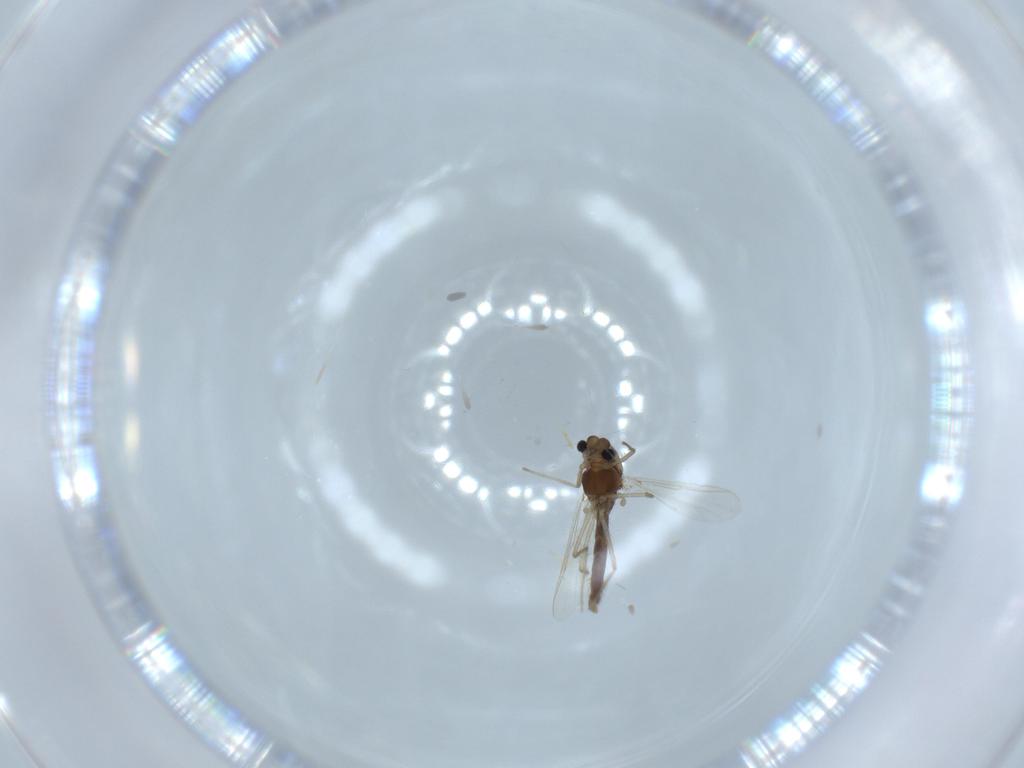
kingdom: Animalia
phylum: Arthropoda
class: Insecta
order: Diptera
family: Chironomidae
